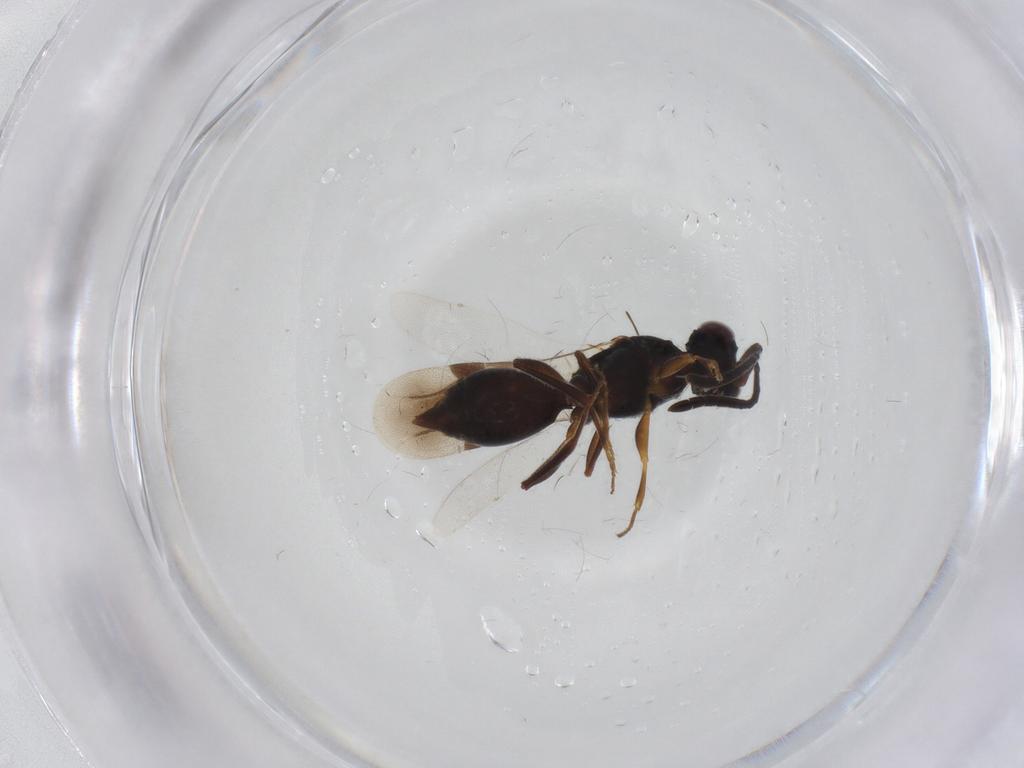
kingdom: Animalia
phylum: Arthropoda
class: Insecta
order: Hymenoptera
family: Megaspilidae
